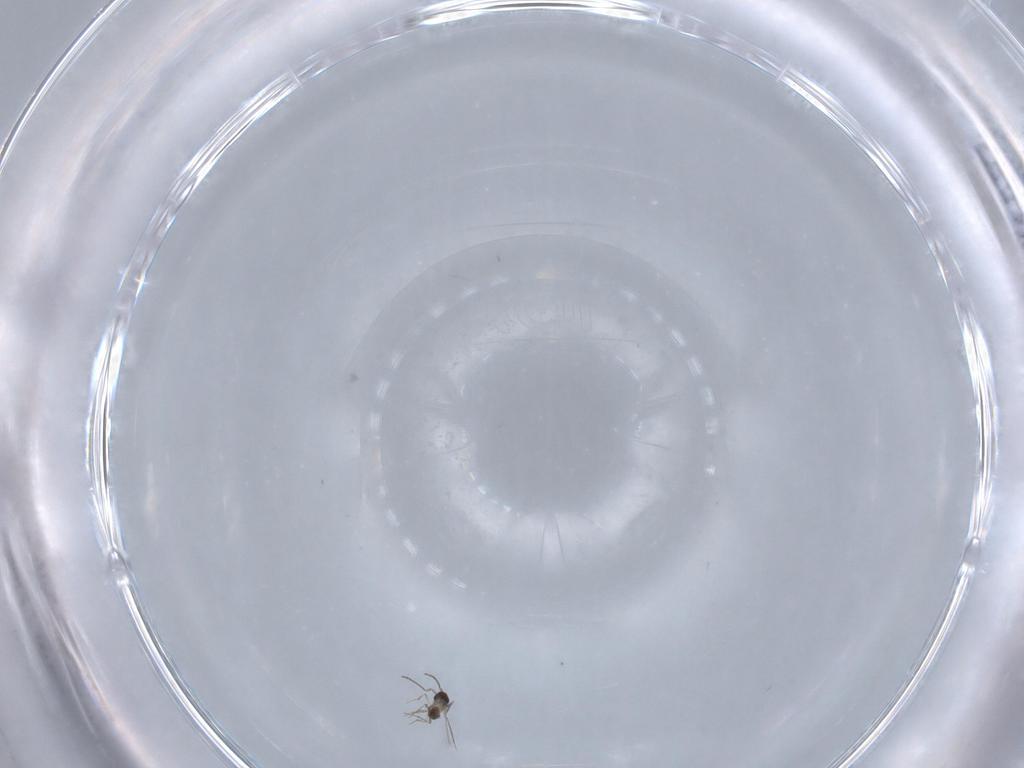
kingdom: Animalia
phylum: Arthropoda
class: Insecta
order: Hymenoptera
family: Mymaridae
